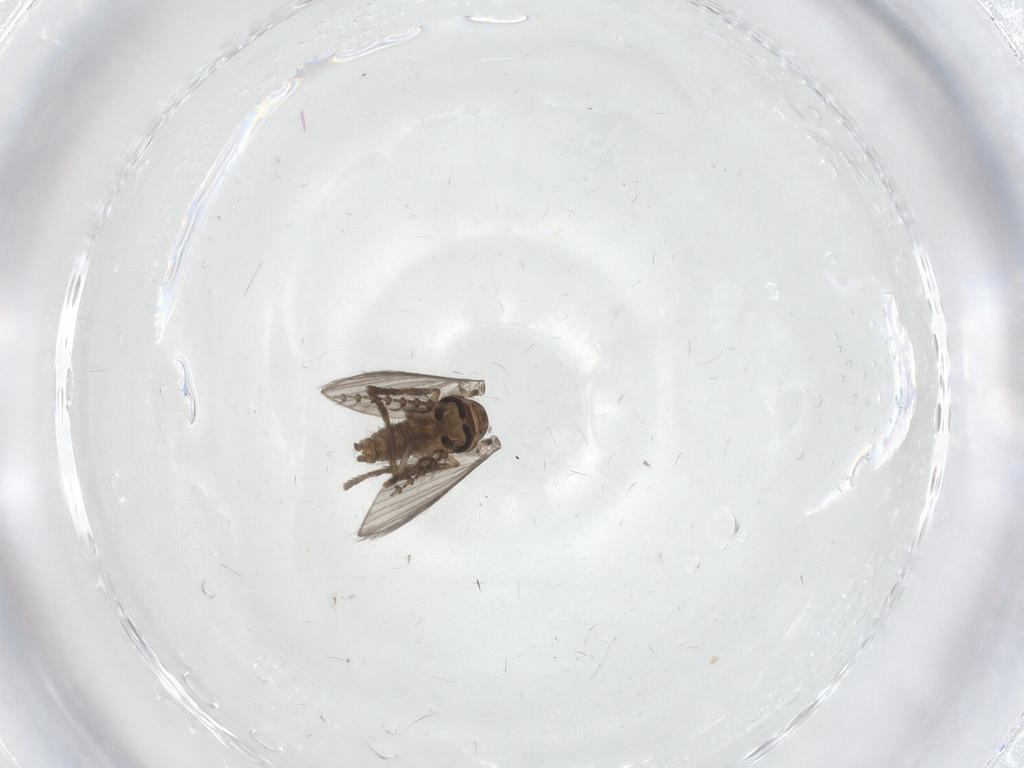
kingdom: Animalia
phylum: Arthropoda
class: Insecta
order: Diptera
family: Psychodidae
